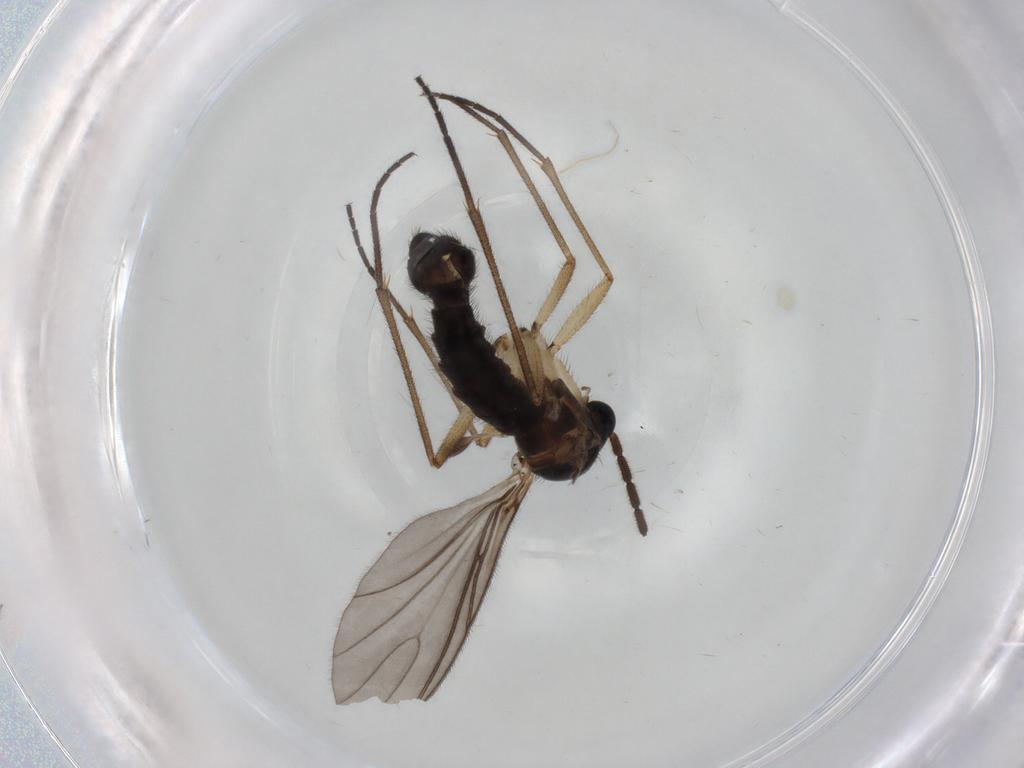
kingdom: Animalia
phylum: Arthropoda
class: Insecta
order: Diptera
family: Sciaridae
